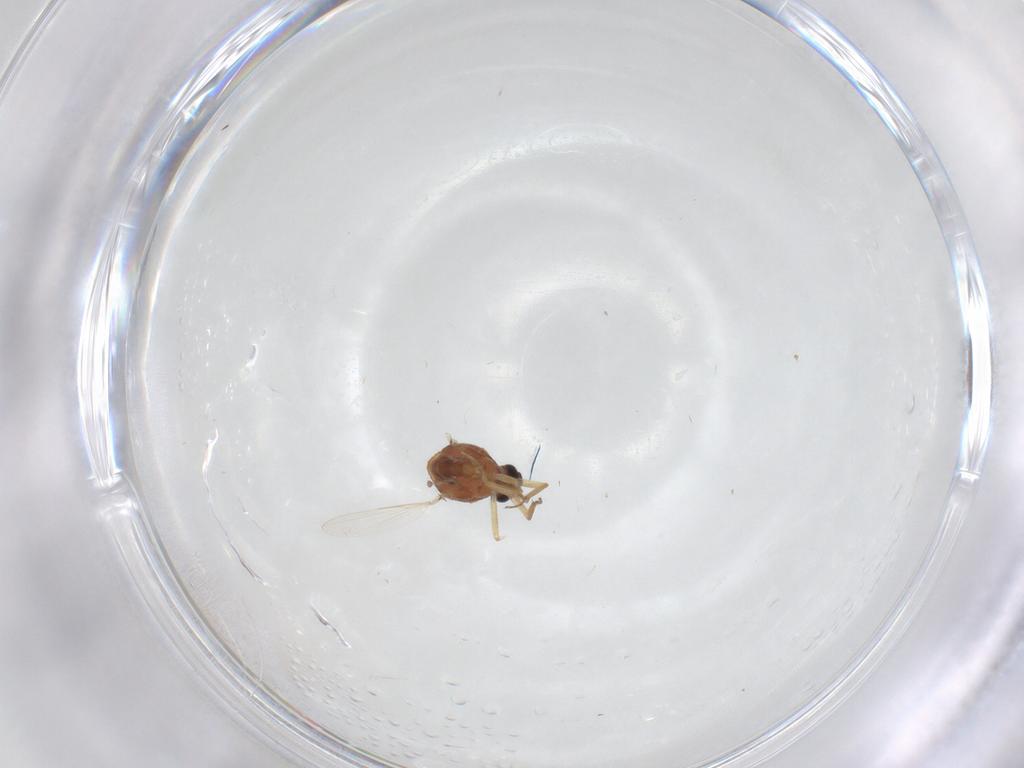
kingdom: Animalia
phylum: Arthropoda
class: Insecta
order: Diptera
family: Ceratopogonidae
